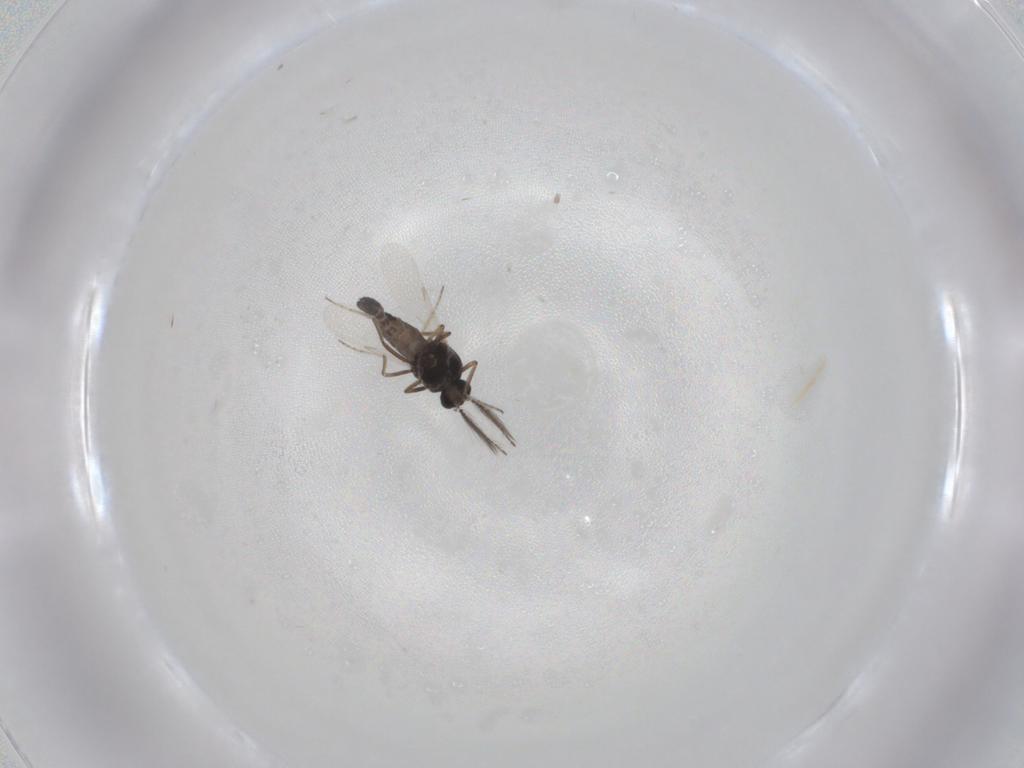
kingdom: Animalia
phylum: Arthropoda
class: Insecta
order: Diptera
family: Ceratopogonidae
